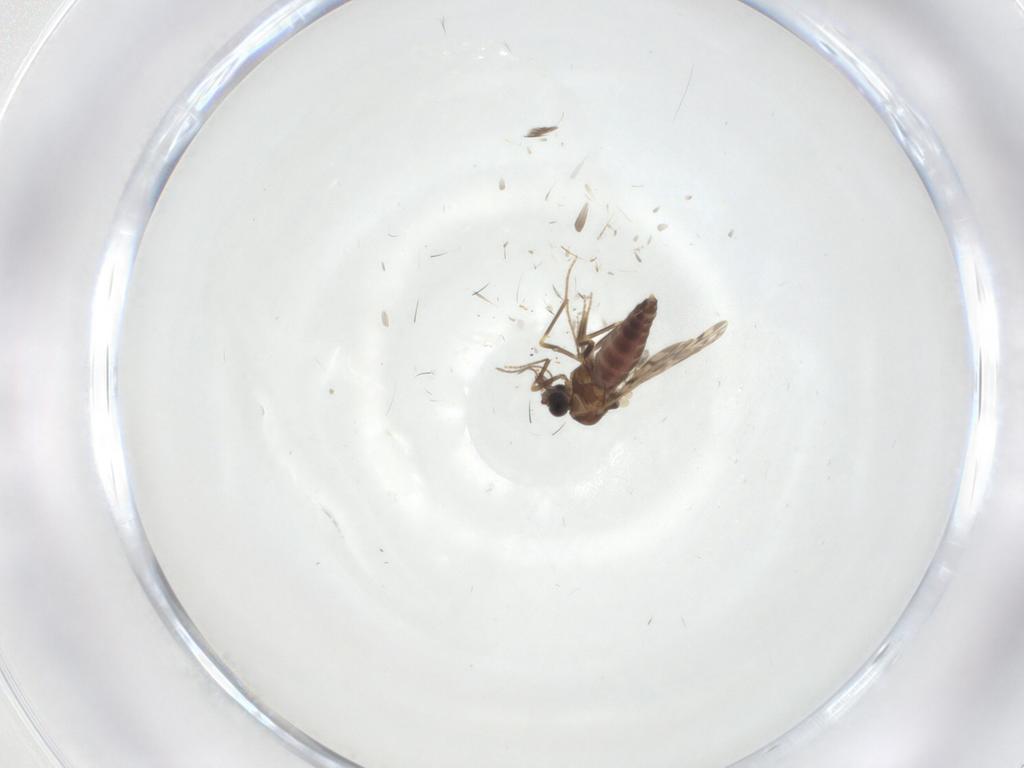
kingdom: Animalia
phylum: Arthropoda
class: Insecta
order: Diptera
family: Ceratopogonidae
